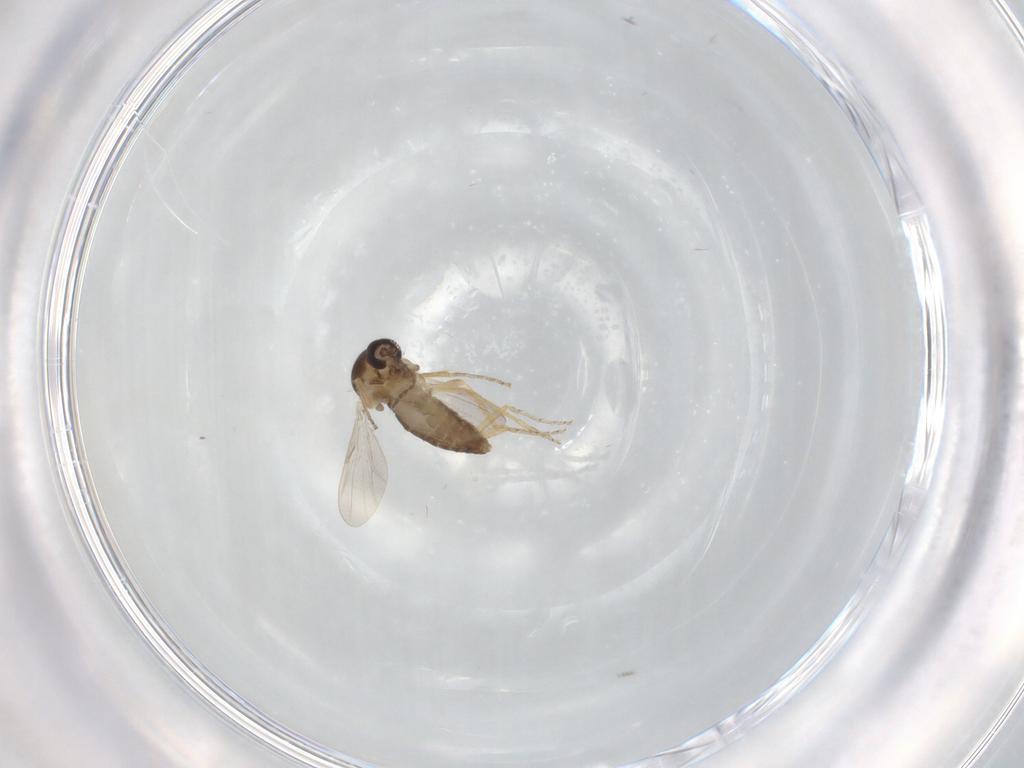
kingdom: Animalia
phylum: Arthropoda
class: Insecta
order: Diptera
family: Ceratopogonidae
